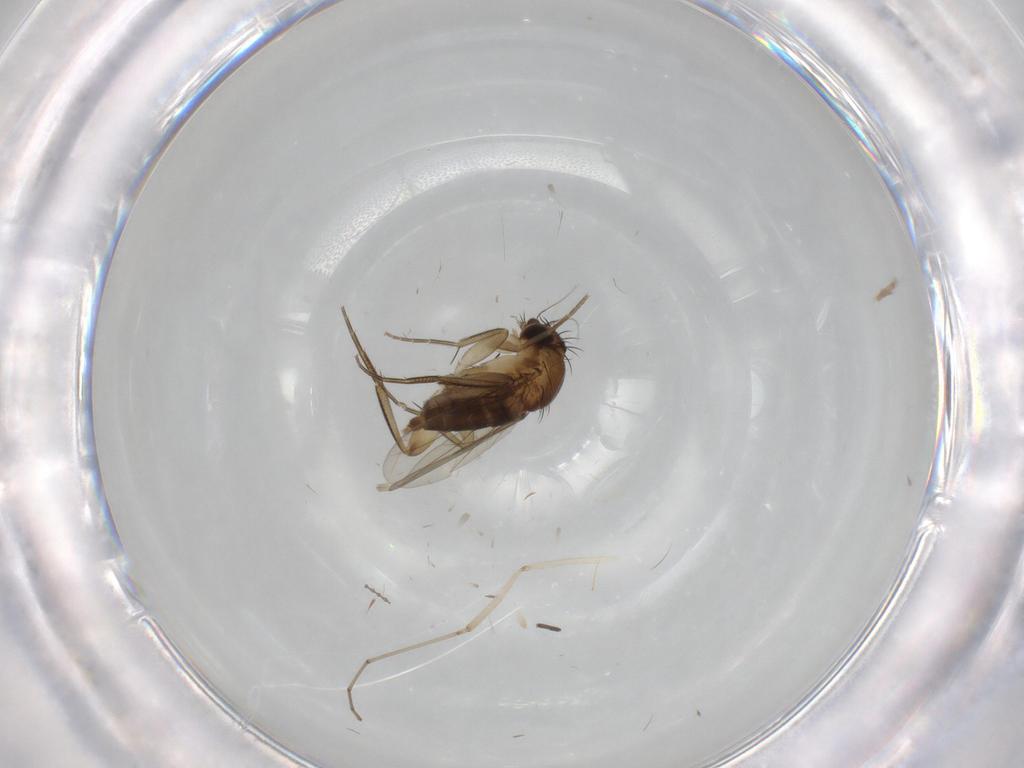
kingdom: Animalia
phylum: Arthropoda
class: Insecta
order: Diptera
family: Phoridae
